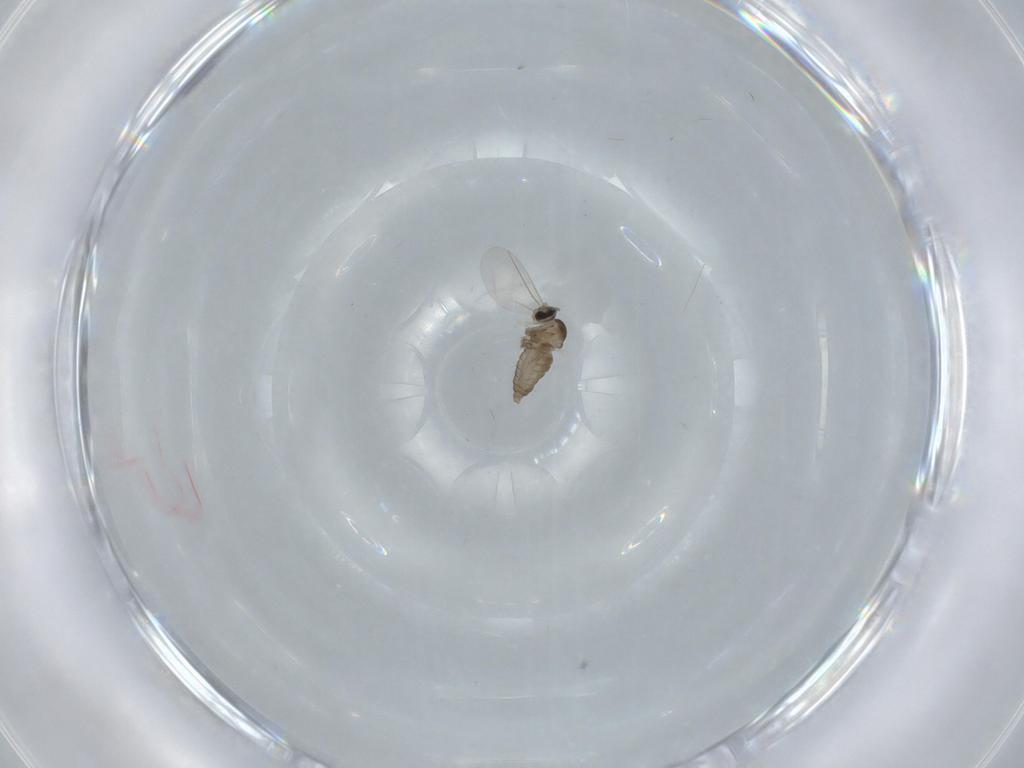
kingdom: Animalia
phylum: Arthropoda
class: Insecta
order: Diptera
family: Cecidomyiidae
